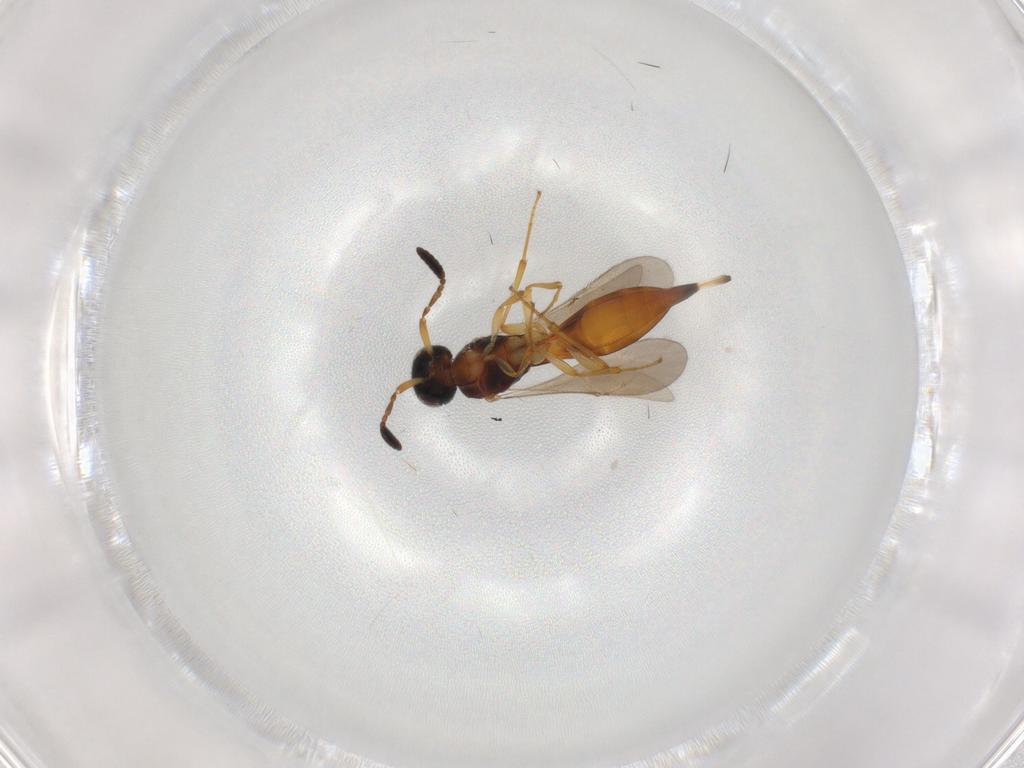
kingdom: Animalia
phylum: Arthropoda
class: Insecta
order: Hymenoptera
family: Scelionidae
